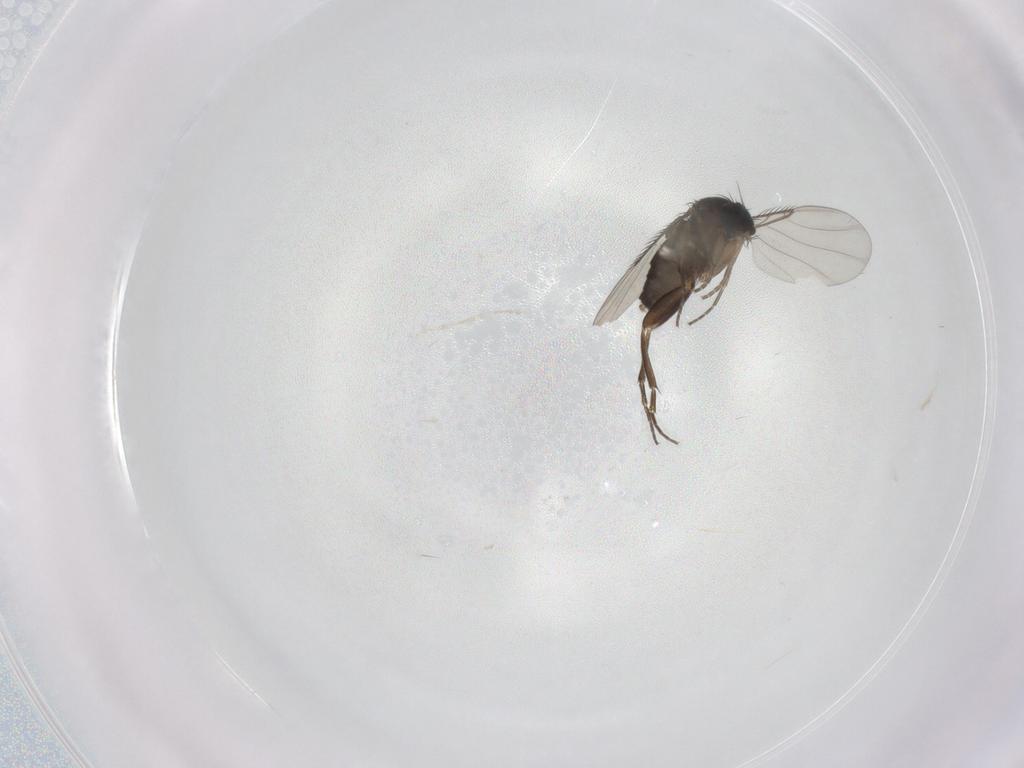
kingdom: Animalia
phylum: Arthropoda
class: Insecta
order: Diptera
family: Phoridae
